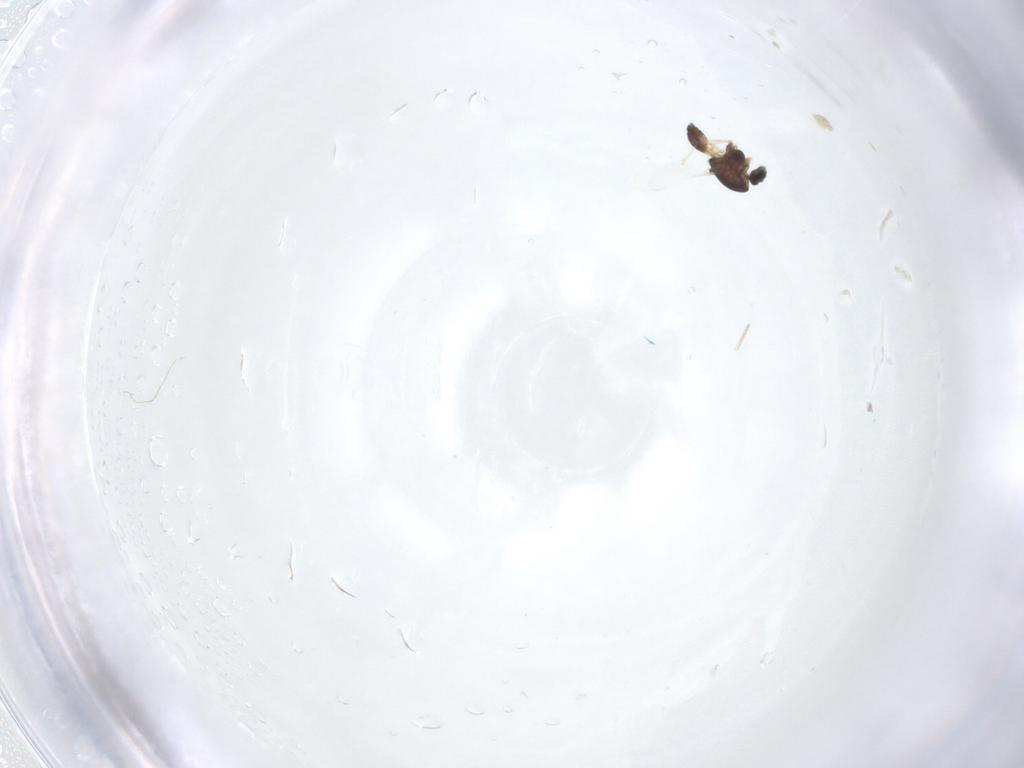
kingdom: Animalia
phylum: Arthropoda
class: Insecta
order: Diptera
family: Chironomidae
